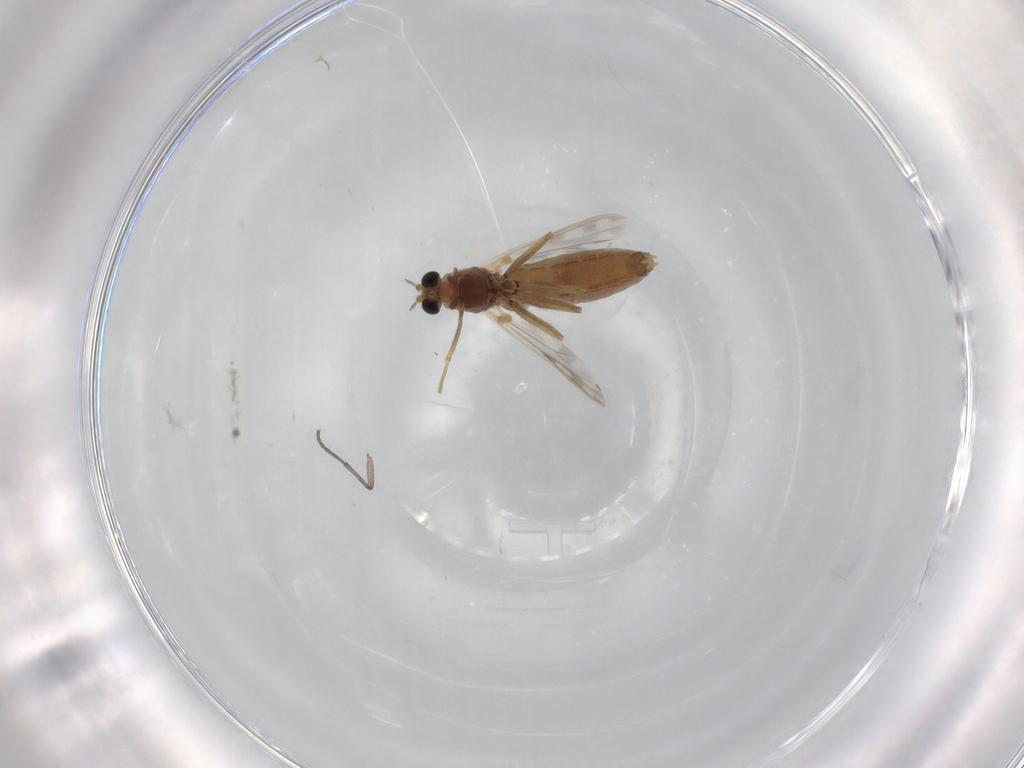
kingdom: Animalia
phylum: Arthropoda
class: Insecta
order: Diptera
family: Chironomidae
